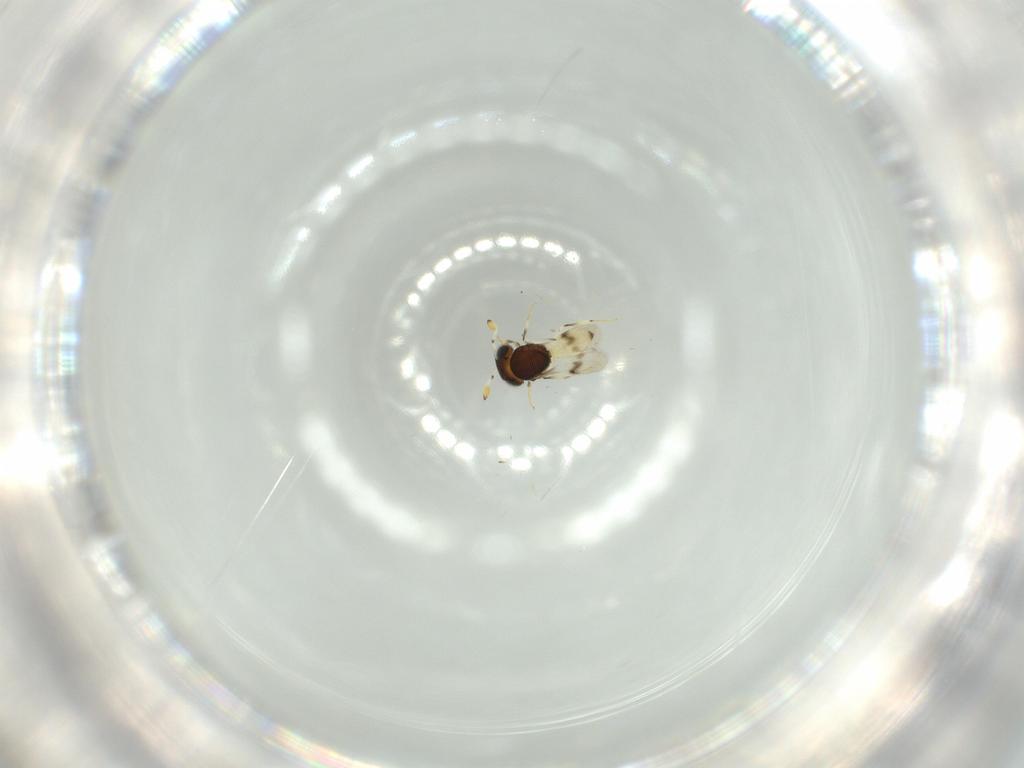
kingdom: Animalia
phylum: Arthropoda
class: Insecta
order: Hymenoptera
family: Scelionidae
